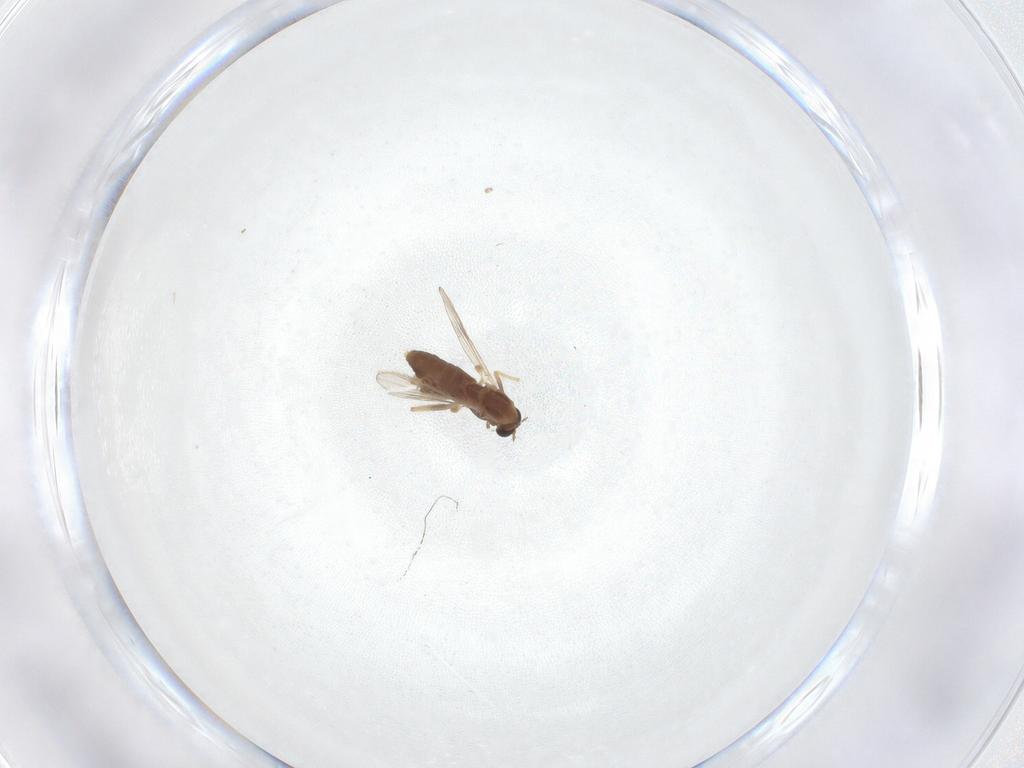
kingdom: Animalia
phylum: Arthropoda
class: Insecta
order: Diptera
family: Chironomidae
